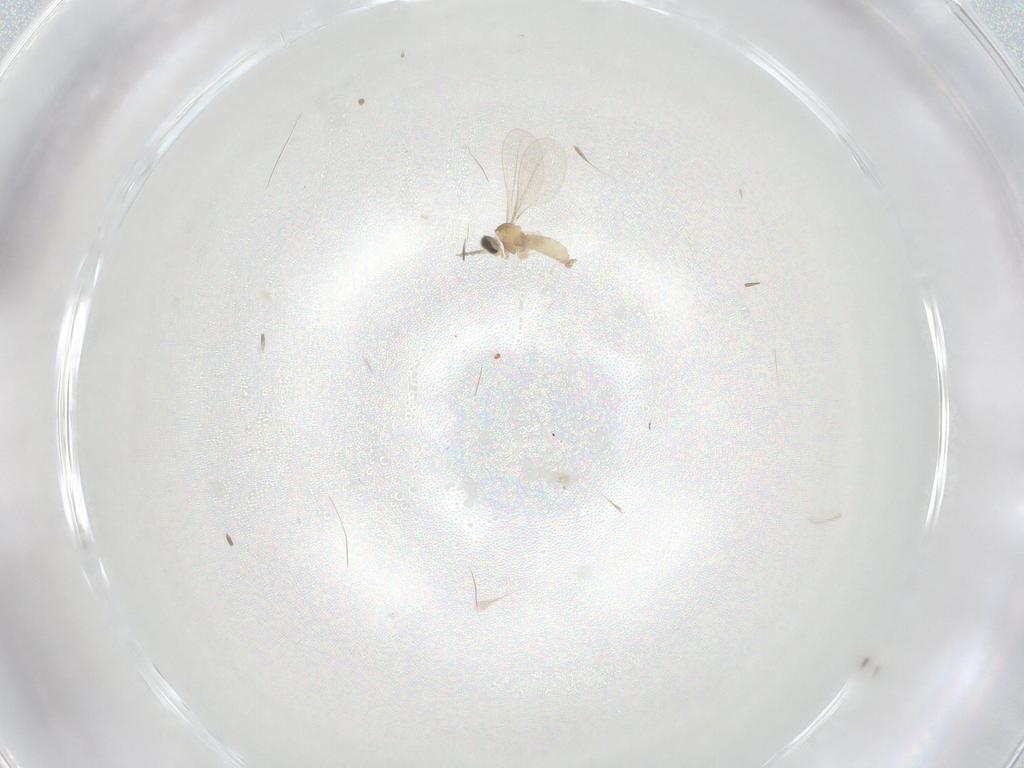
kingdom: Animalia
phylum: Arthropoda
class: Insecta
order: Diptera
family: Cecidomyiidae
